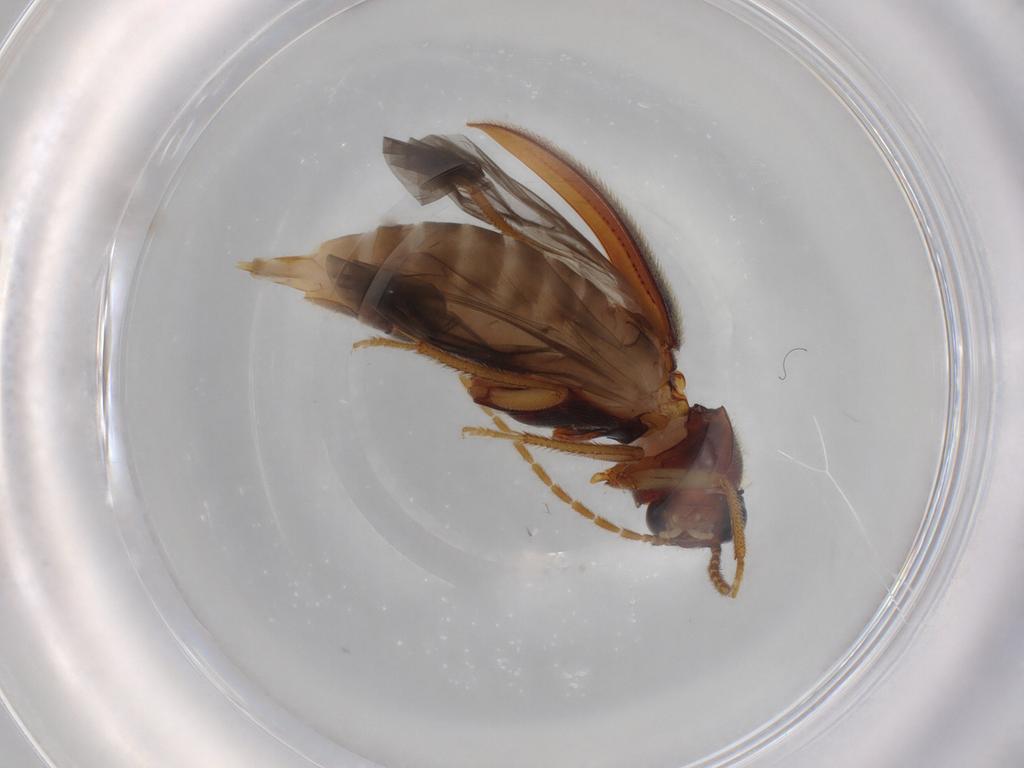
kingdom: Animalia
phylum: Arthropoda
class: Insecta
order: Coleoptera
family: Ptilodactylidae
